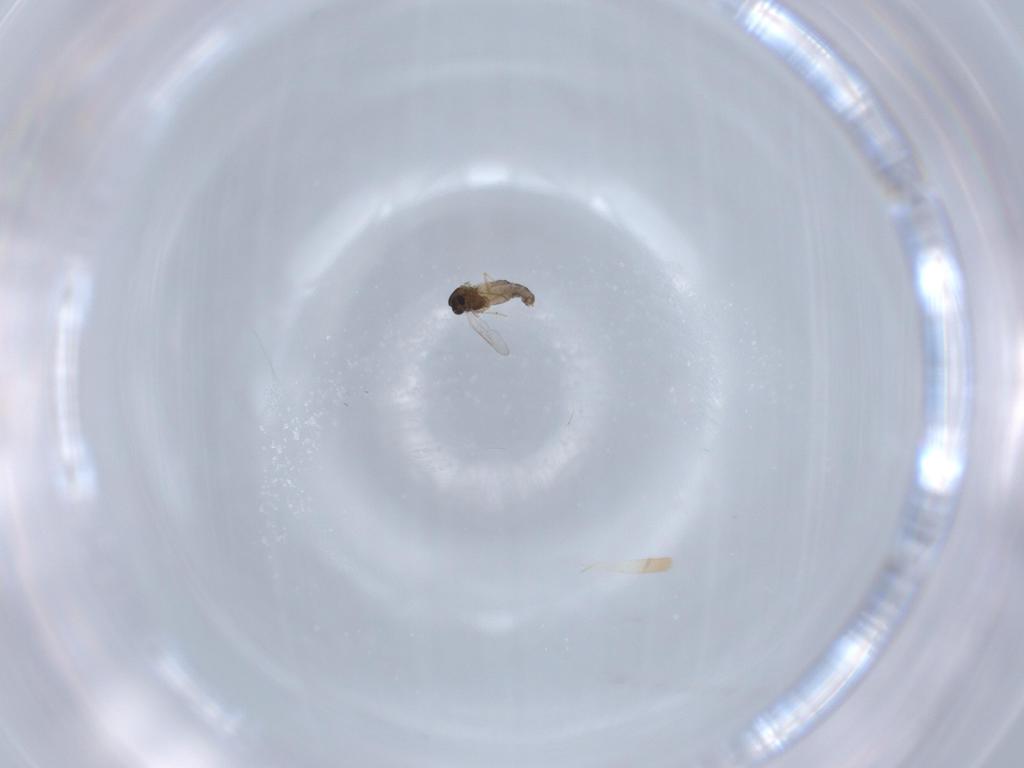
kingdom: Animalia
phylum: Arthropoda
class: Insecta
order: Diptera
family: Chironomidae
